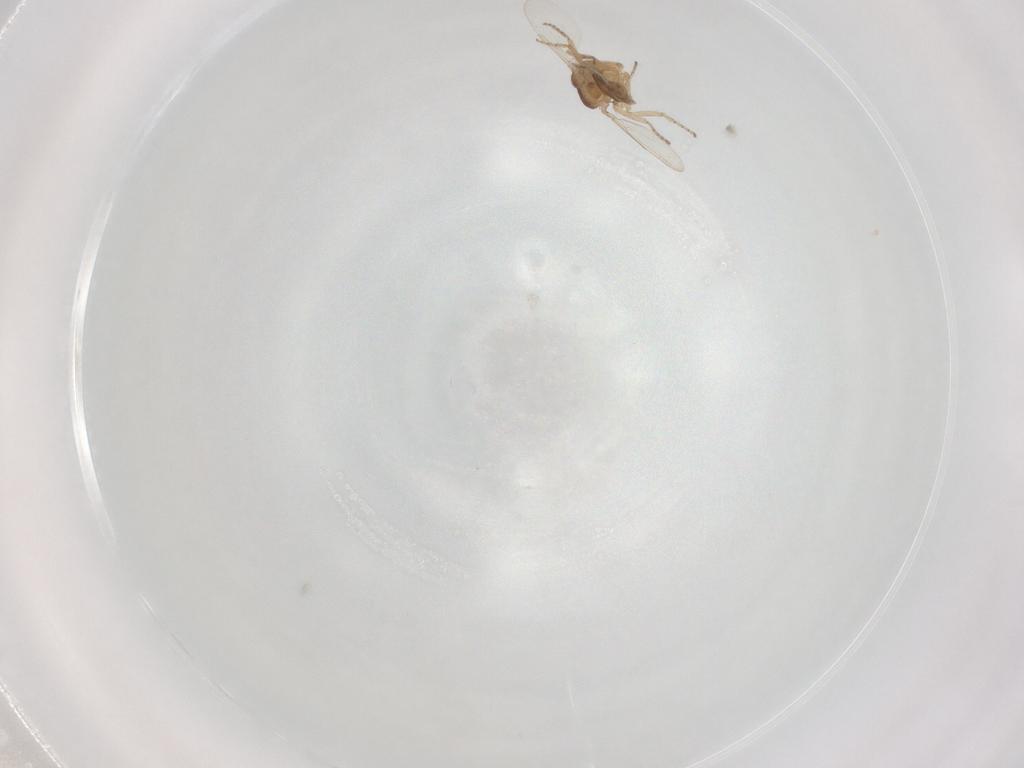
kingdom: Animalia
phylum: Arthropoda
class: Insecta
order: Diptera
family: Ceratopogonidae
